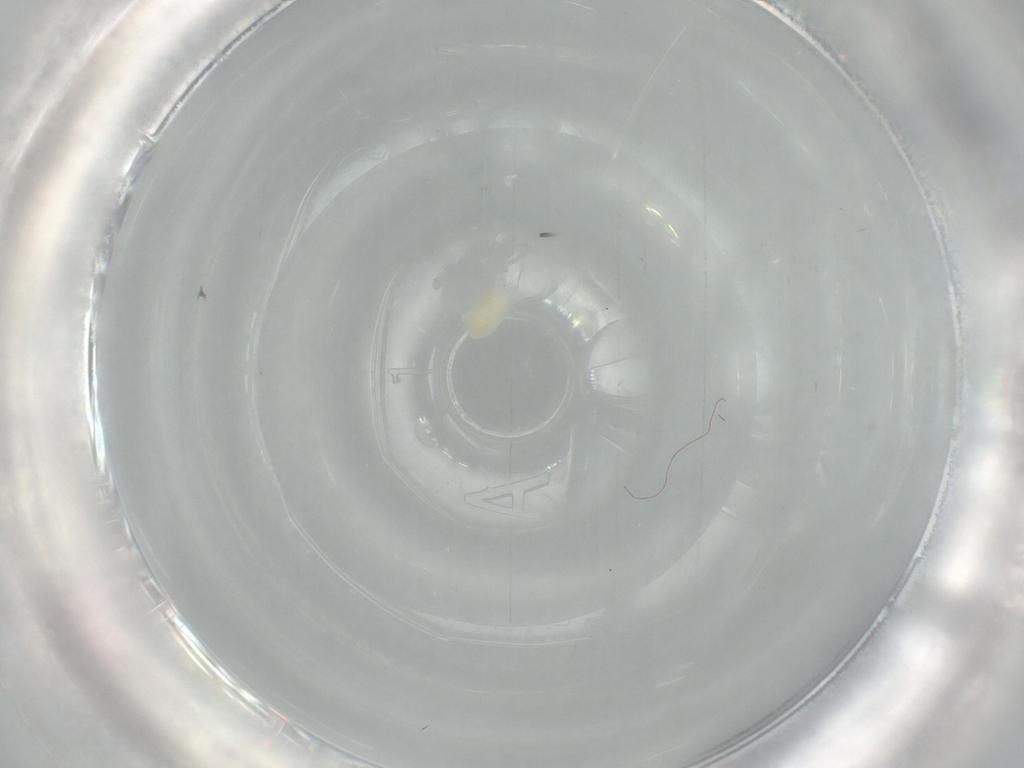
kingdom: Animalia
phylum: Arthropoda
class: Arachnida
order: Trombidiformes
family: Eupodidae
